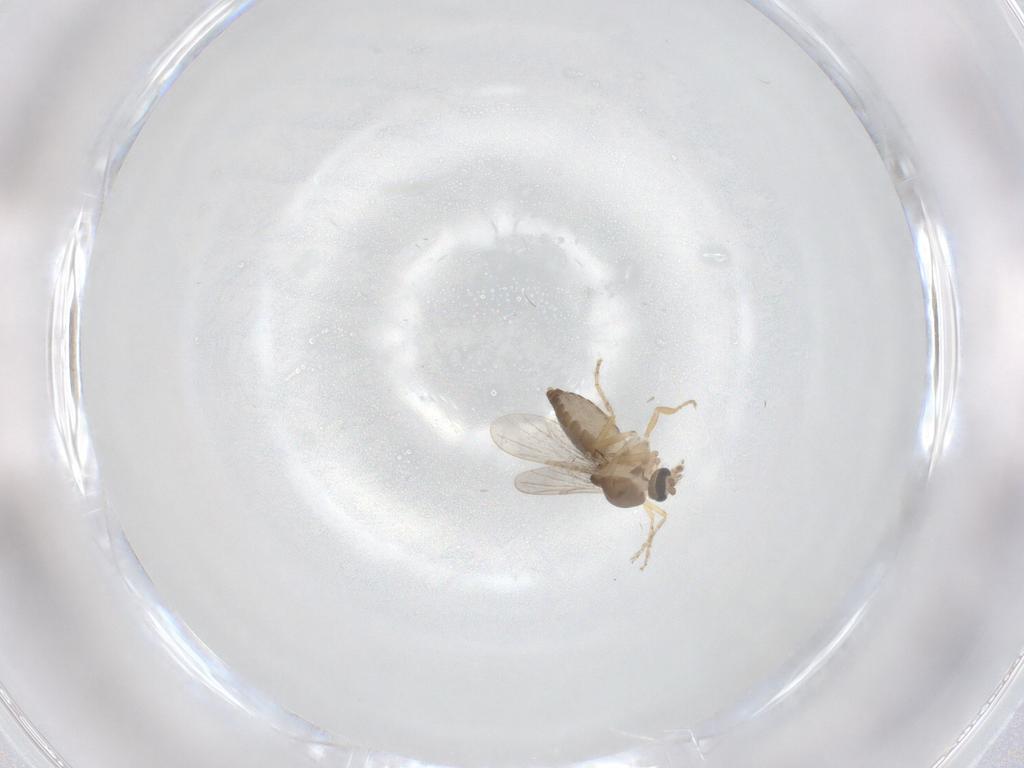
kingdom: Animalia
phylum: Arthropoda
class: Insecta
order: Diptera
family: Ceratopogonidae
